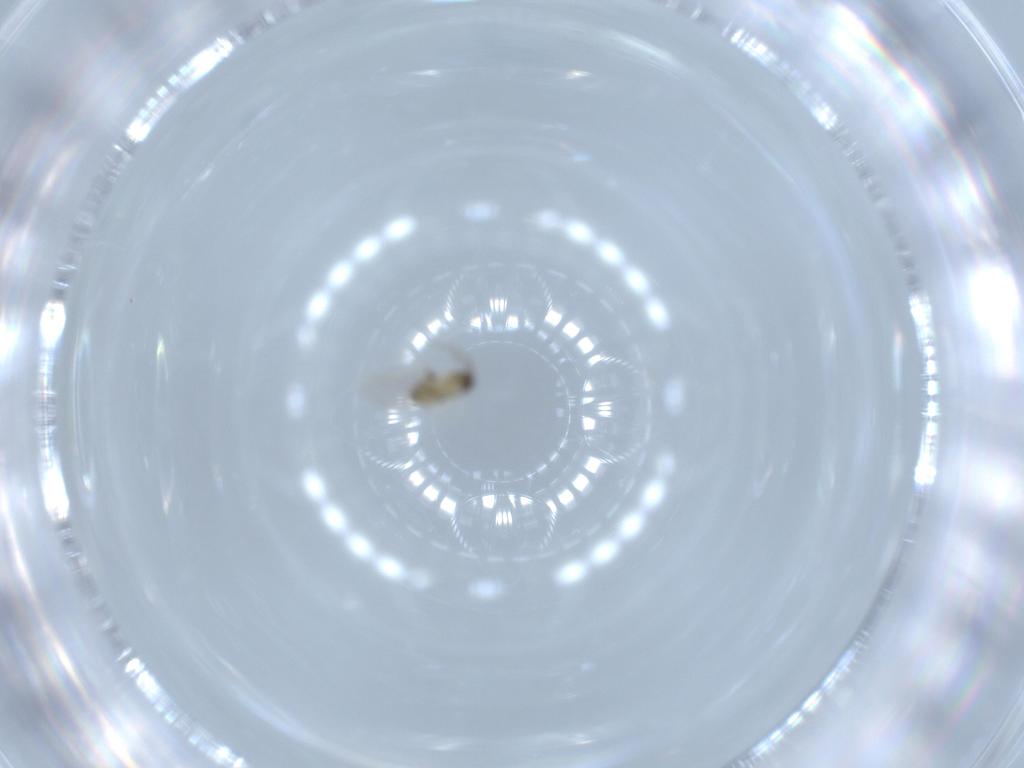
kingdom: Animalia
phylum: Arthropoda
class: Insecta
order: Diptera
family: Cecidomyiidae
